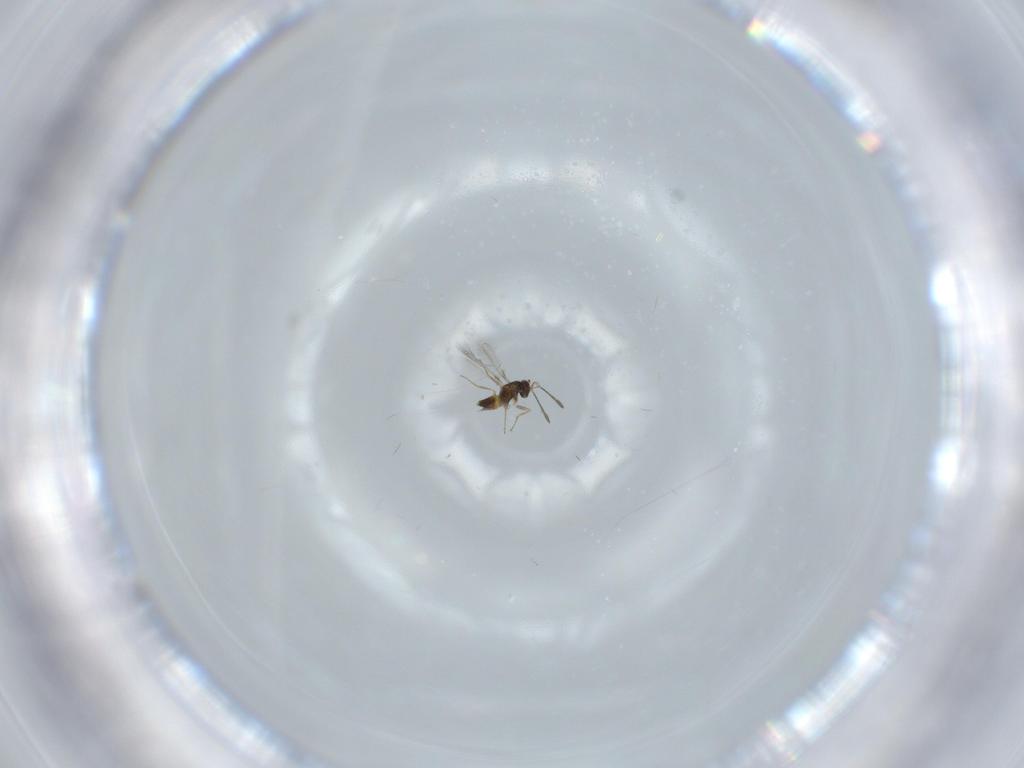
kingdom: Animalia
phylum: Arthropoda
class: Insecta
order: Hymenoptera
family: Mymaridae
